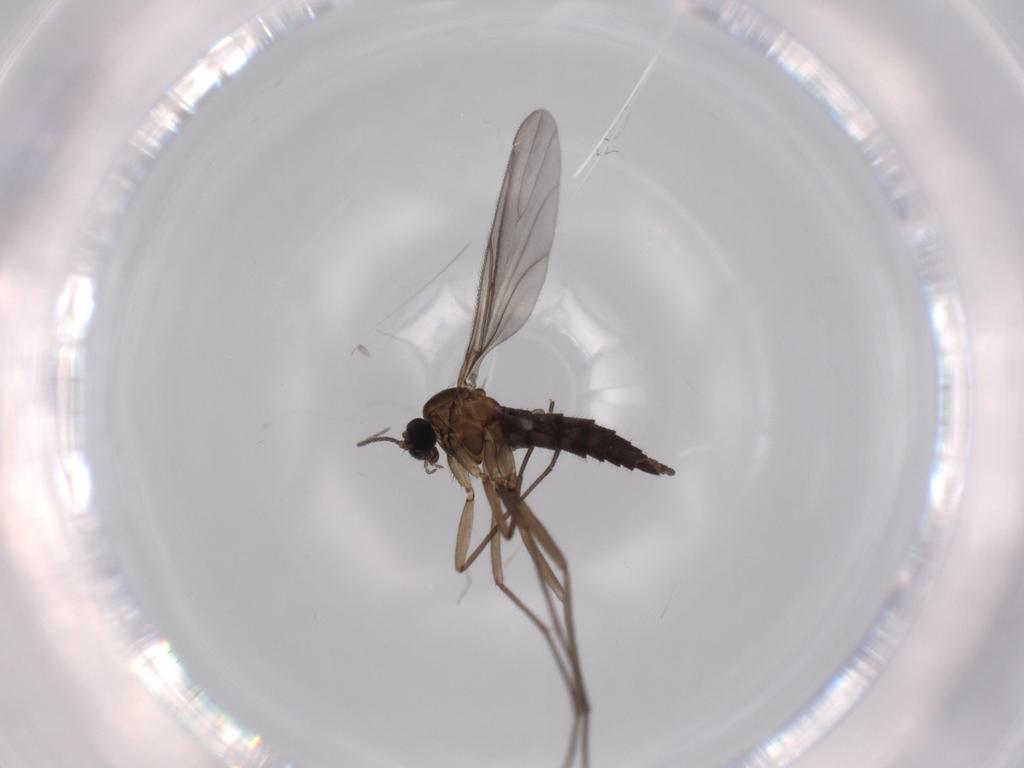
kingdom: Animalia
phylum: Arthropoda
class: Insecta
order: Diptera
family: Sciaridae
